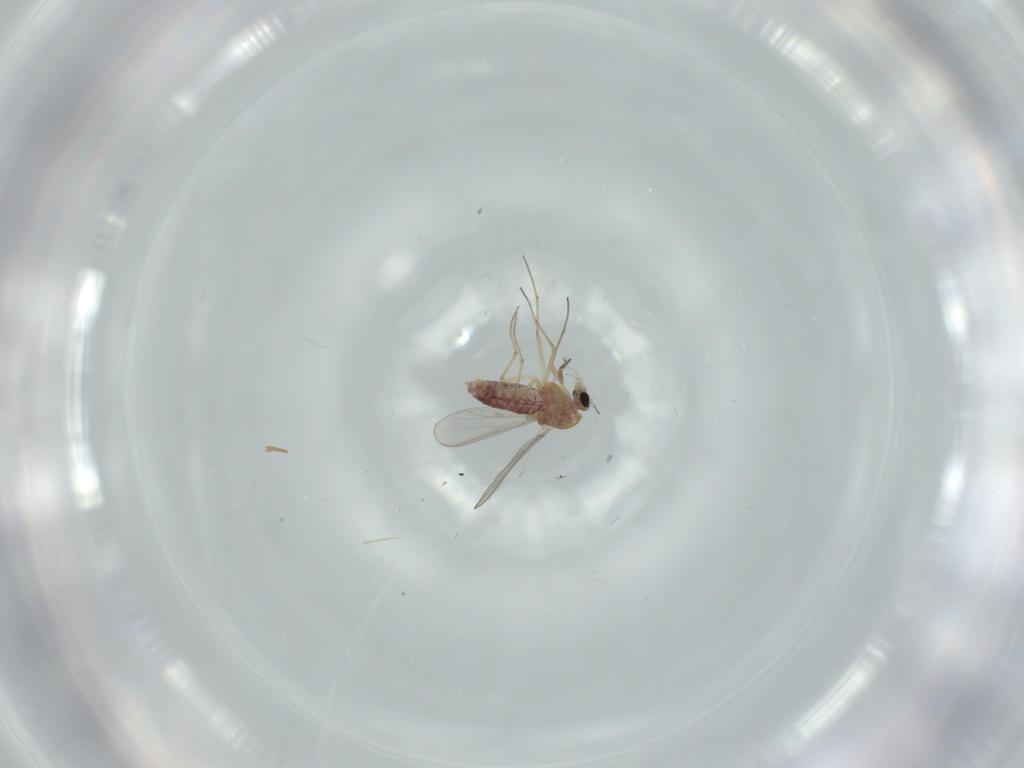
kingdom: Animalia
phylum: Arthropoda
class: Insecta
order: Diptera
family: Chironomidae
